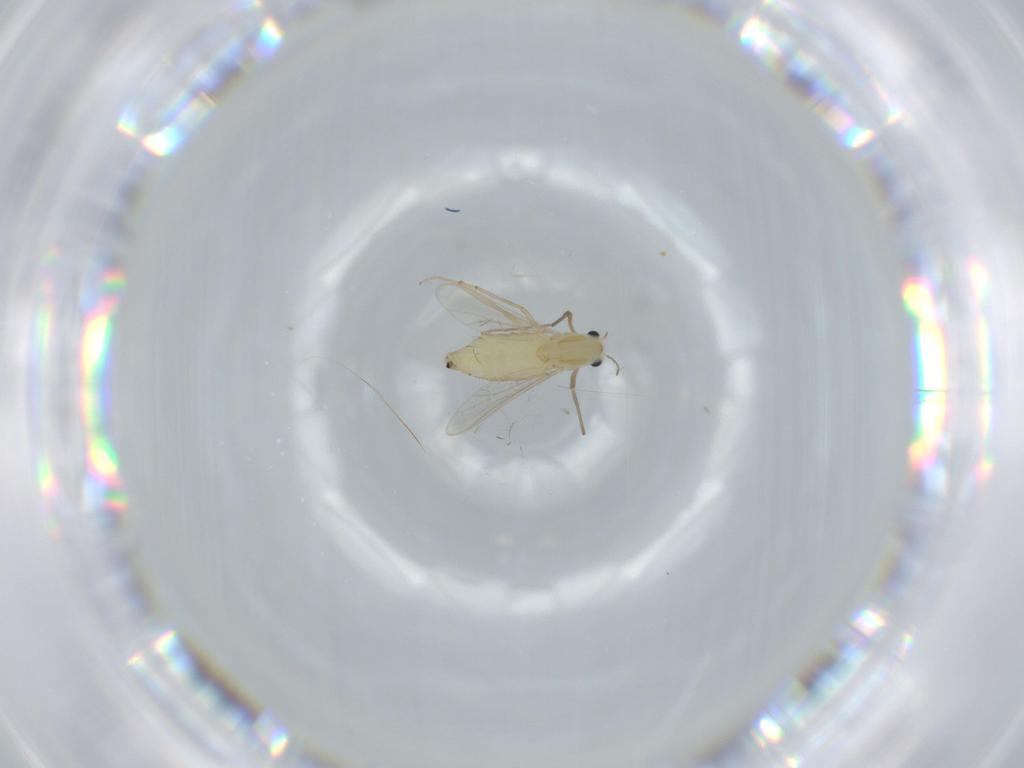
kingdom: Animalia
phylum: Arthropoda
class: Insecta
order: Diptera
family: Chironomidae
